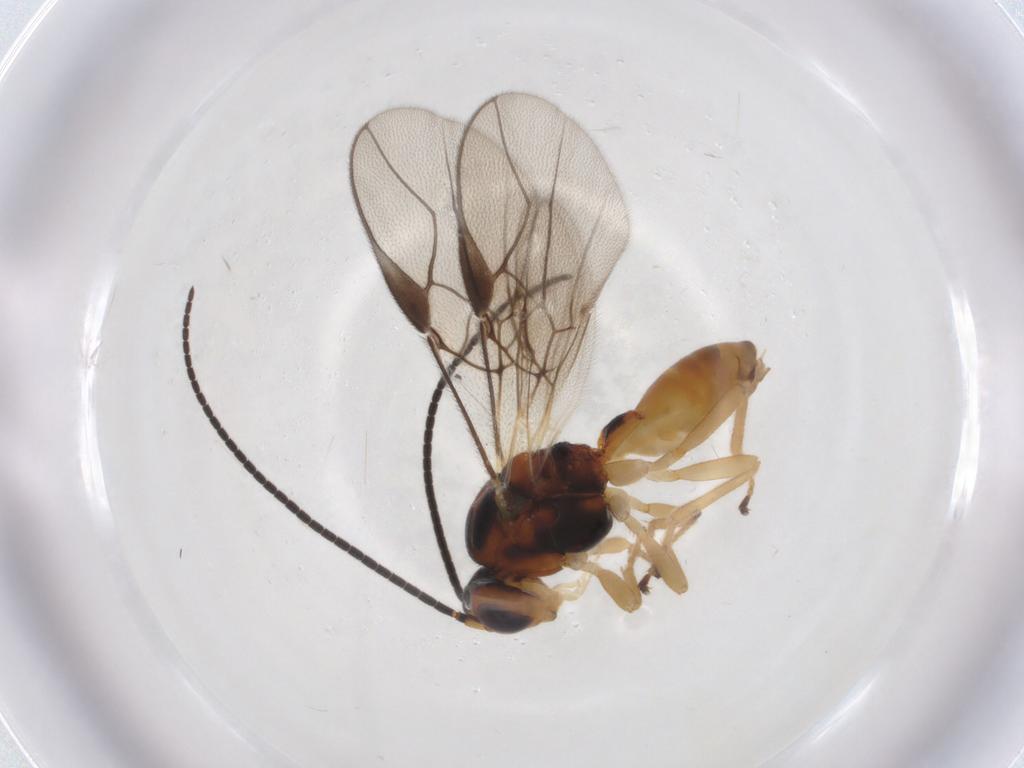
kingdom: Animalia
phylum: Arthropoda
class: Insecta
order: Hymenoptera
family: Braconidae
